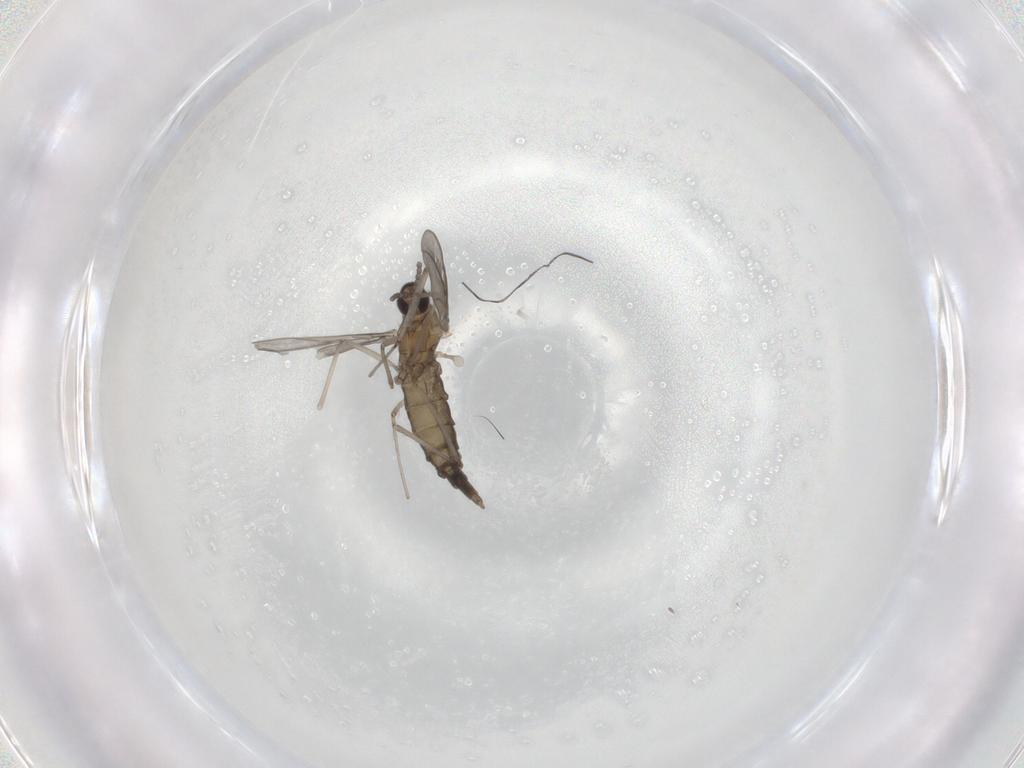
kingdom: Animalia
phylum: Arthropoda
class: Insecta
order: Diptera
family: Cecidomyiidae
